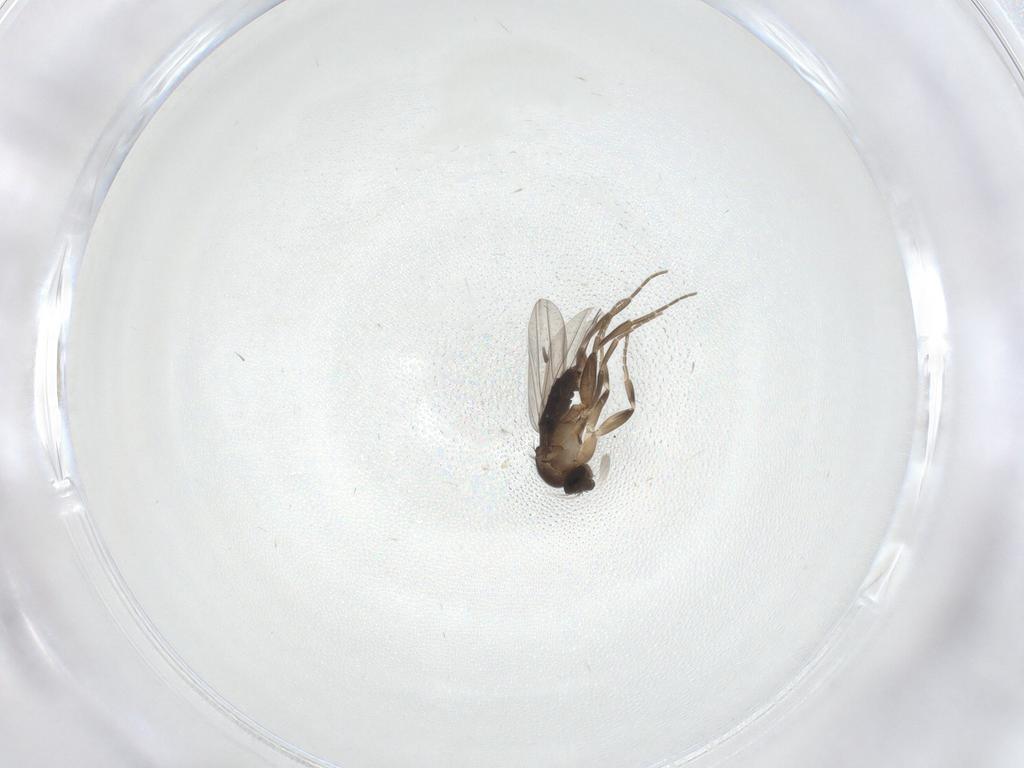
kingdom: Animalia
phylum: Arthropoda
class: Insecta
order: Diptera
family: Phoridae
